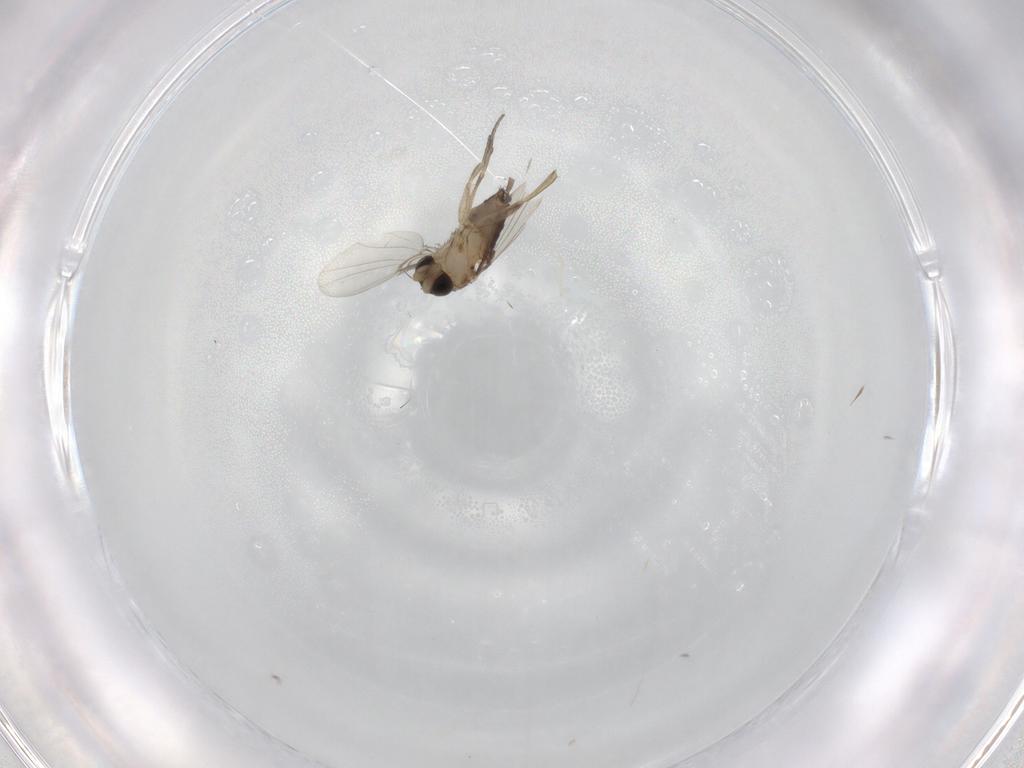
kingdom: Animalia
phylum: Arthropoda
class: Insecta
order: Diptera
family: Phoridae
